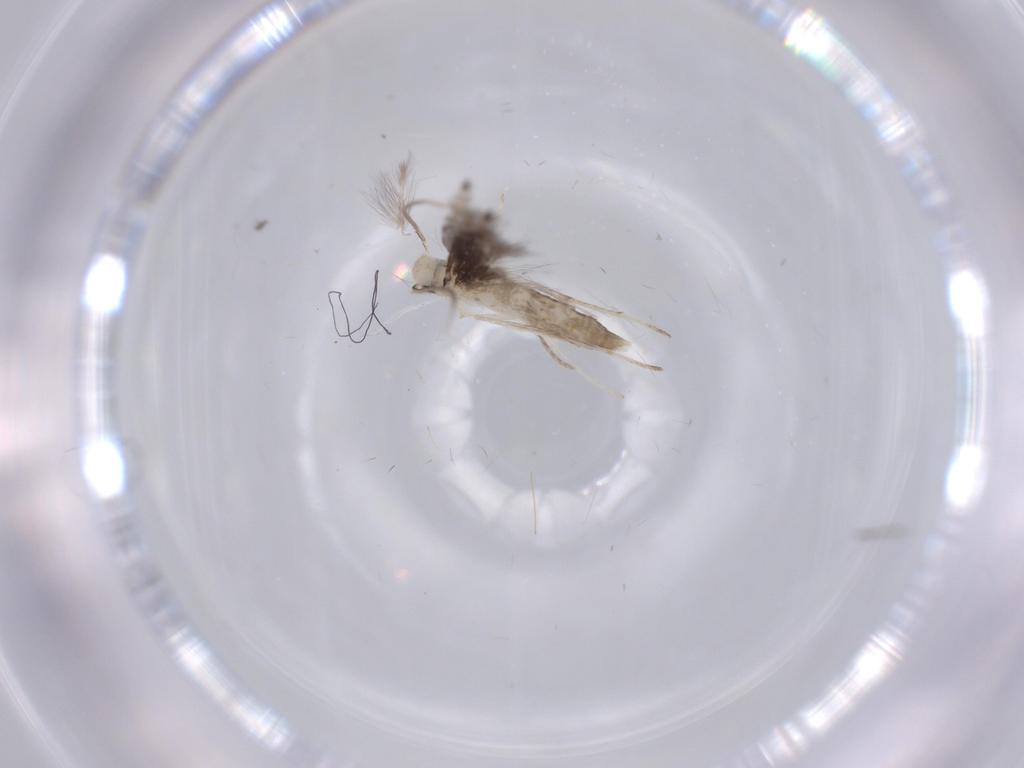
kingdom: Animalia
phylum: Arthropoda
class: Insecta
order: Lepidoptera
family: Gracillariidae
